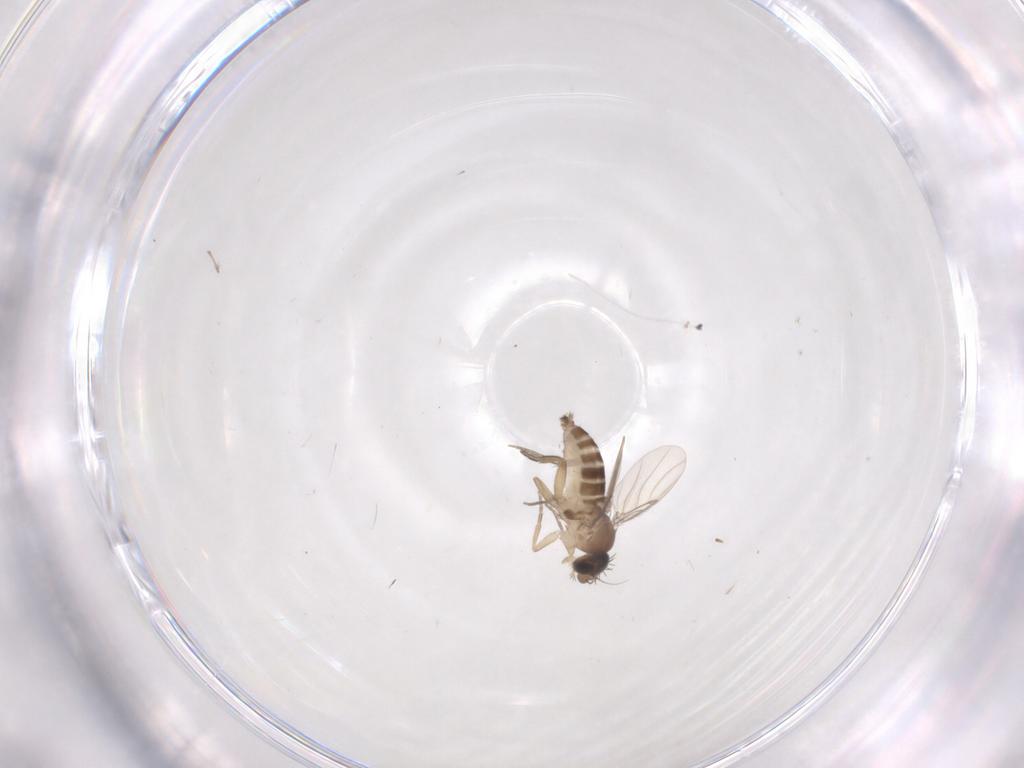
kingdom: Animalia
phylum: Arthropoda
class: Insecta
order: Diptera
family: Phoridae
